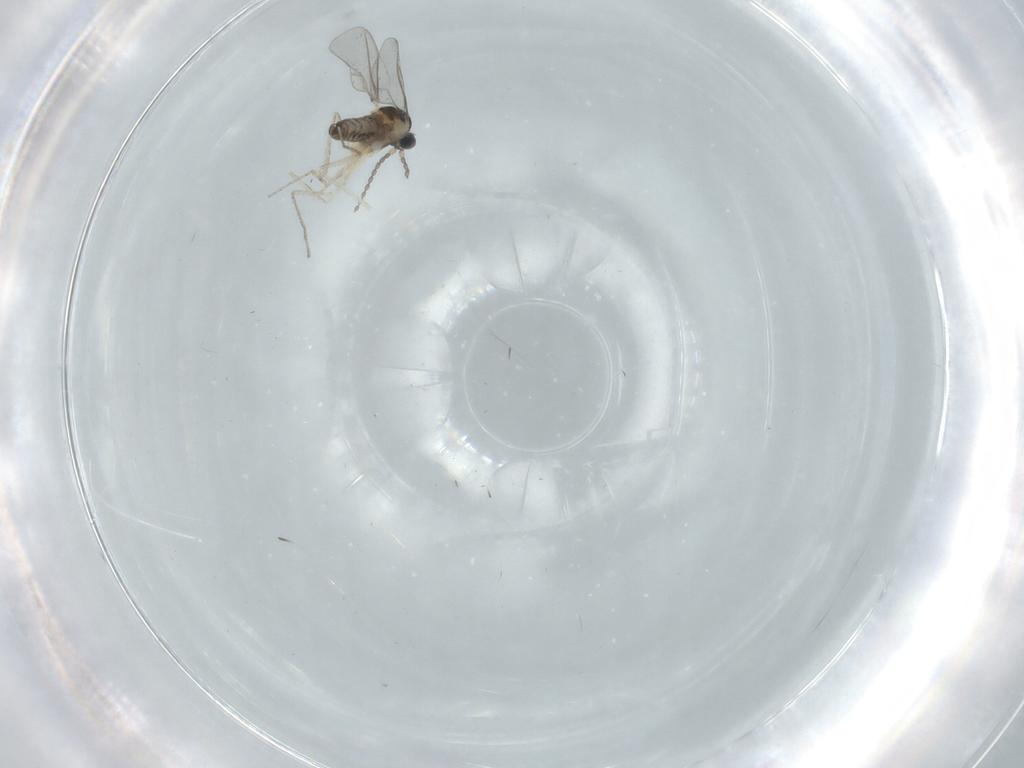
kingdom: Animalia
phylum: Arthropoda
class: Insecta
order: Diptera
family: Cecidomyiidae
